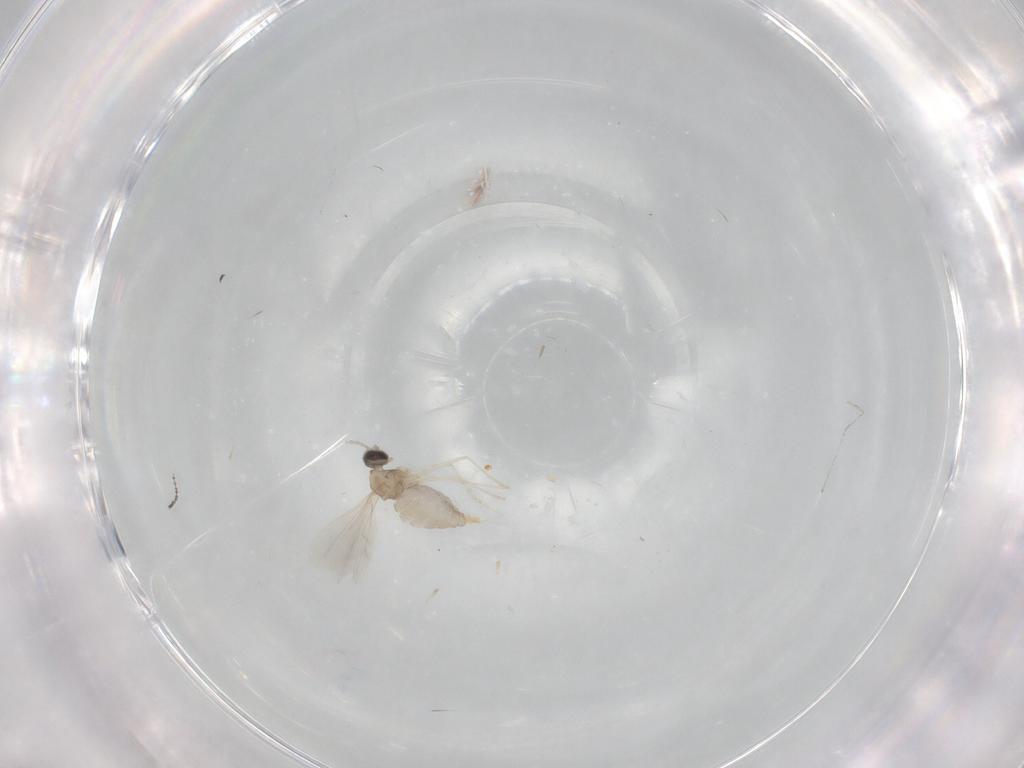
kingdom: Animalia
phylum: Arthropoda
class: Insecta
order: Diptera
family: Cecidomyiidae
